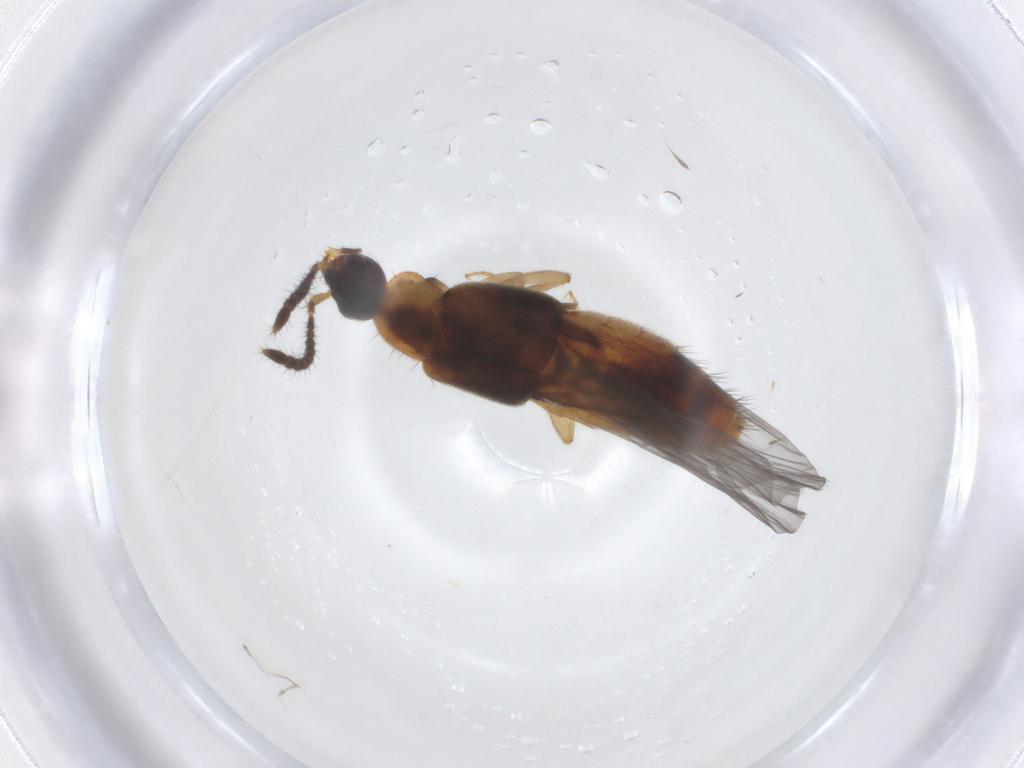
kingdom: Animalia
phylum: Arthropoda
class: Insecta
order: Coleoptera
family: Staphylinidae
